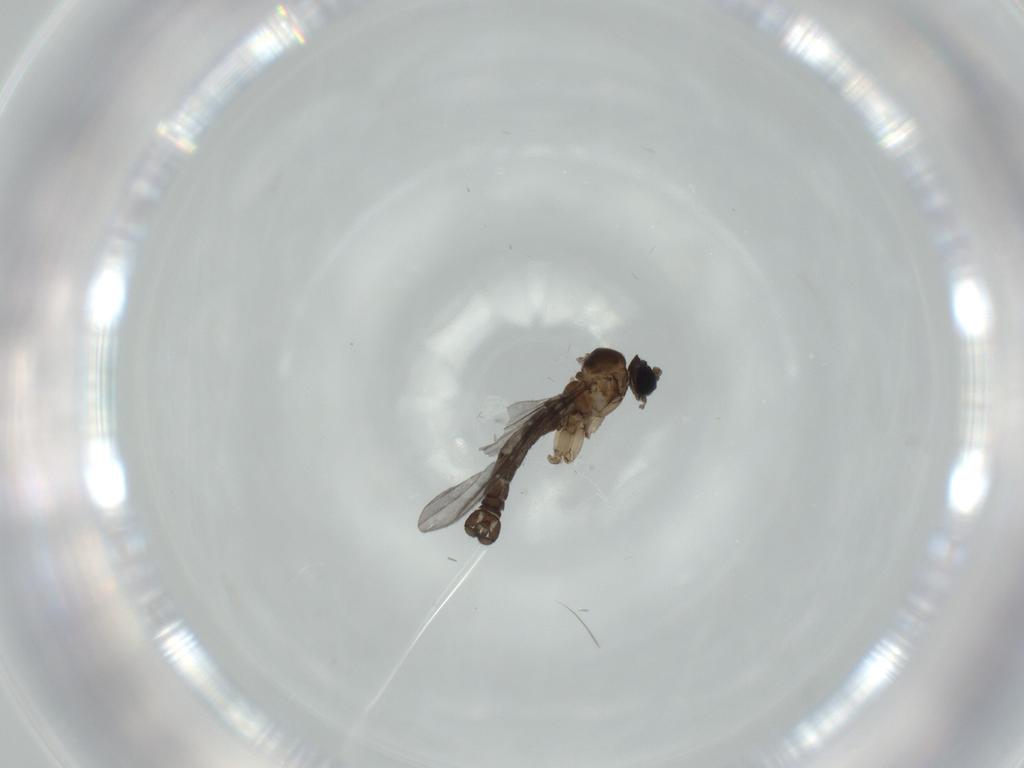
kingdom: Animalia
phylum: Arthropoda
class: Insecta
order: Diptera
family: Sciaridae
